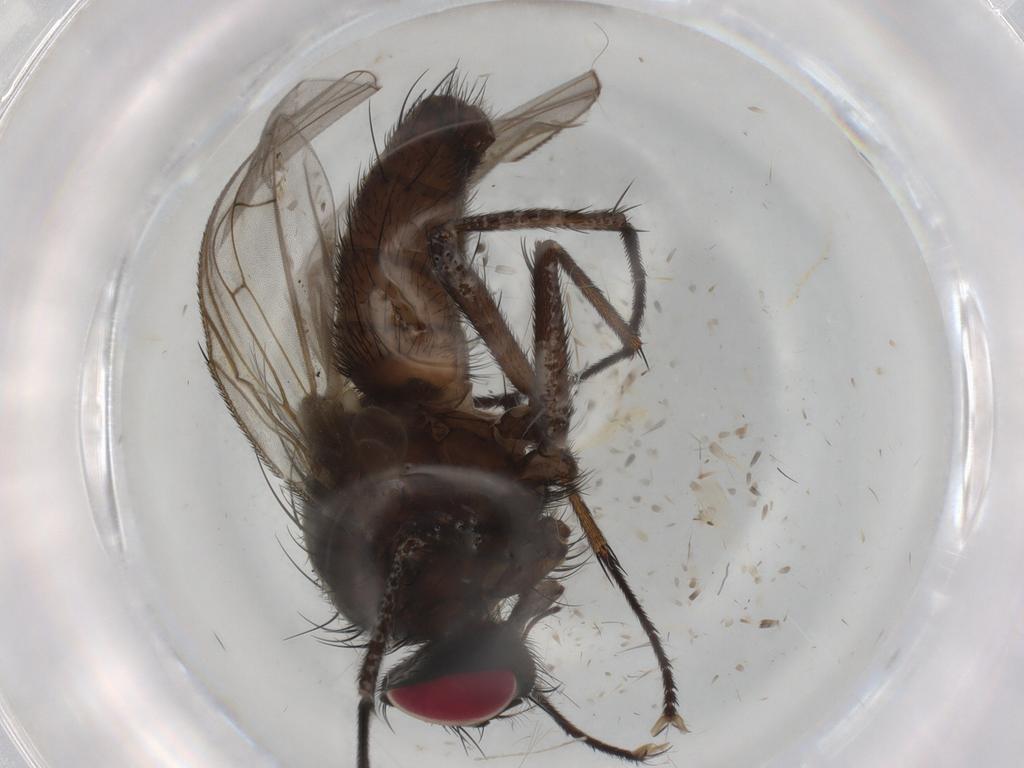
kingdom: Animalia
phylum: Arthropoda
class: Insecta
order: Diptera
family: Muscidae
